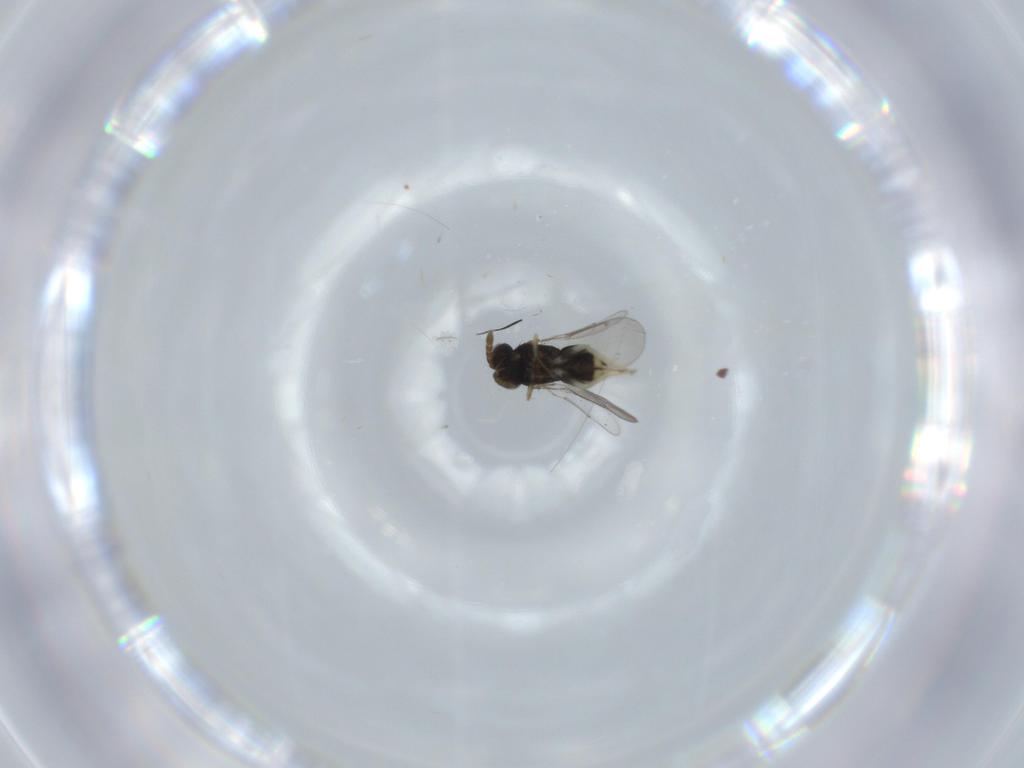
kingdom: Animalia
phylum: Arthropoda
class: Insecta
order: Hymenoptera
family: Aphelinidae
